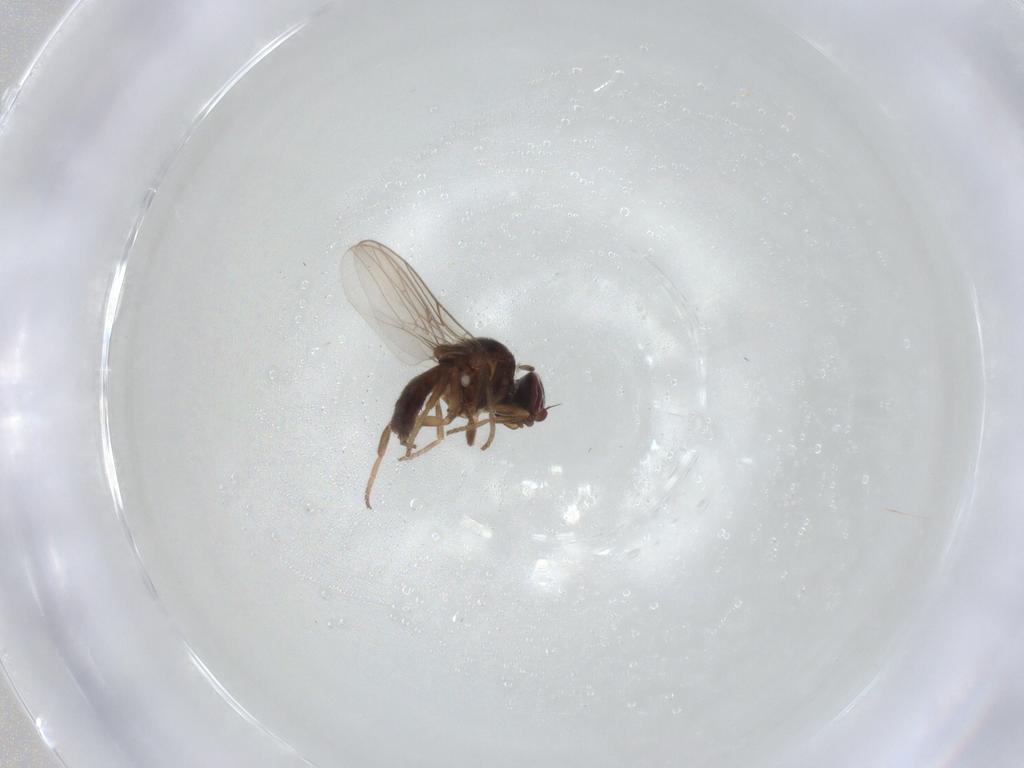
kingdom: Animalia
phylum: Arthropoda
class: Insecta
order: Diptera
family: Chloropidae
